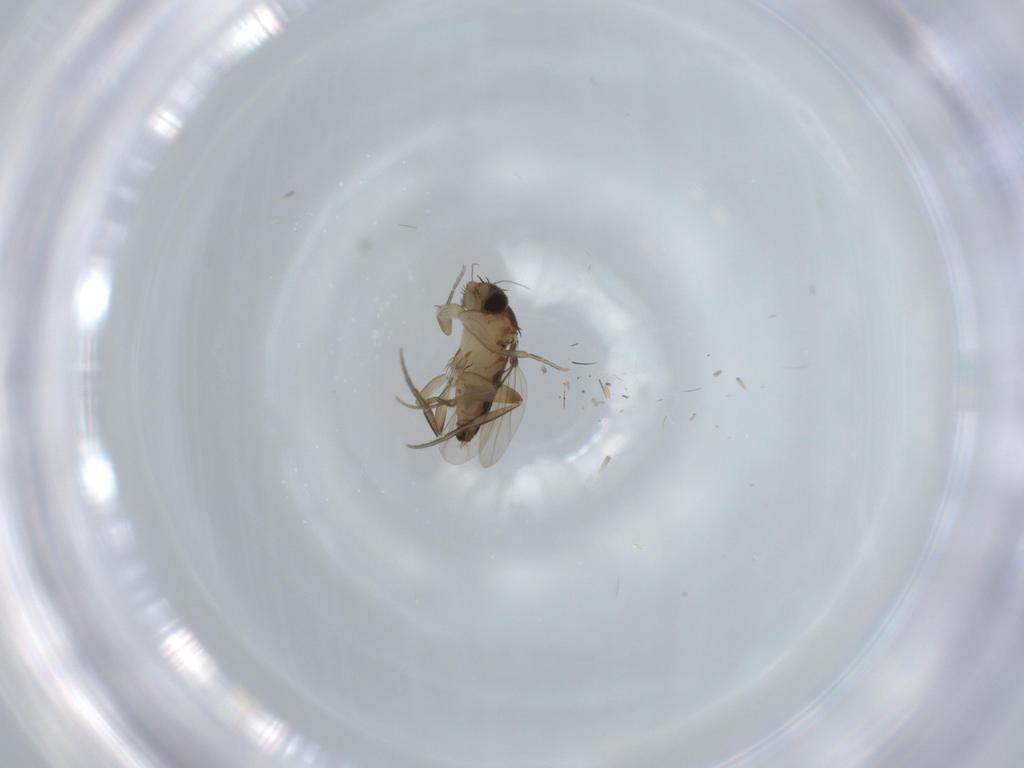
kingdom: Animalia
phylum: Arthropoda
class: Insecta
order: Diptera
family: Phoridae
